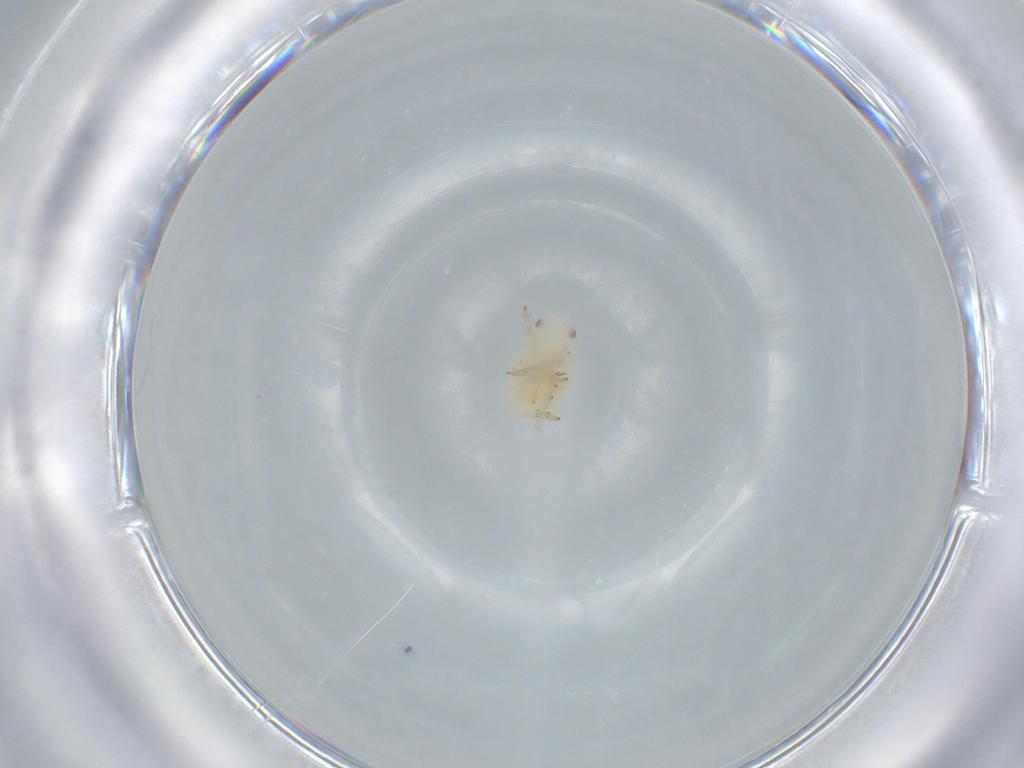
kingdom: Animalia
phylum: Arthropoda
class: Insecta
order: Hemiptera
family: Flatidae
